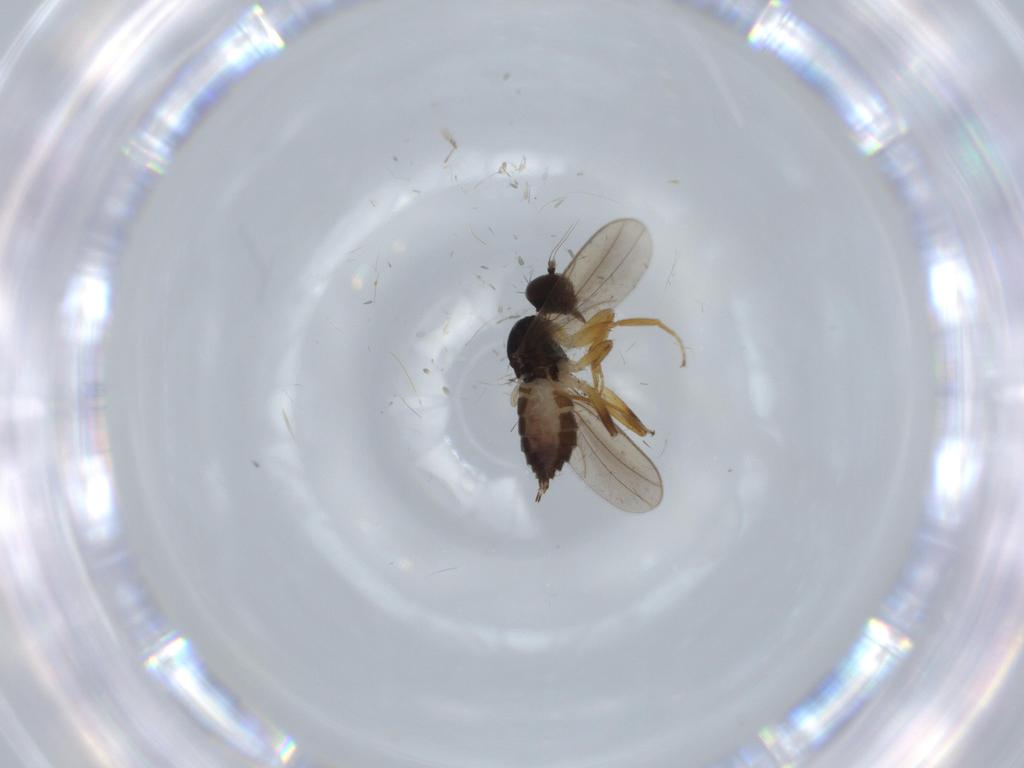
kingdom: Animalia
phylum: Arthropoda
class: Insecta
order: Diptera
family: Hybotidae
